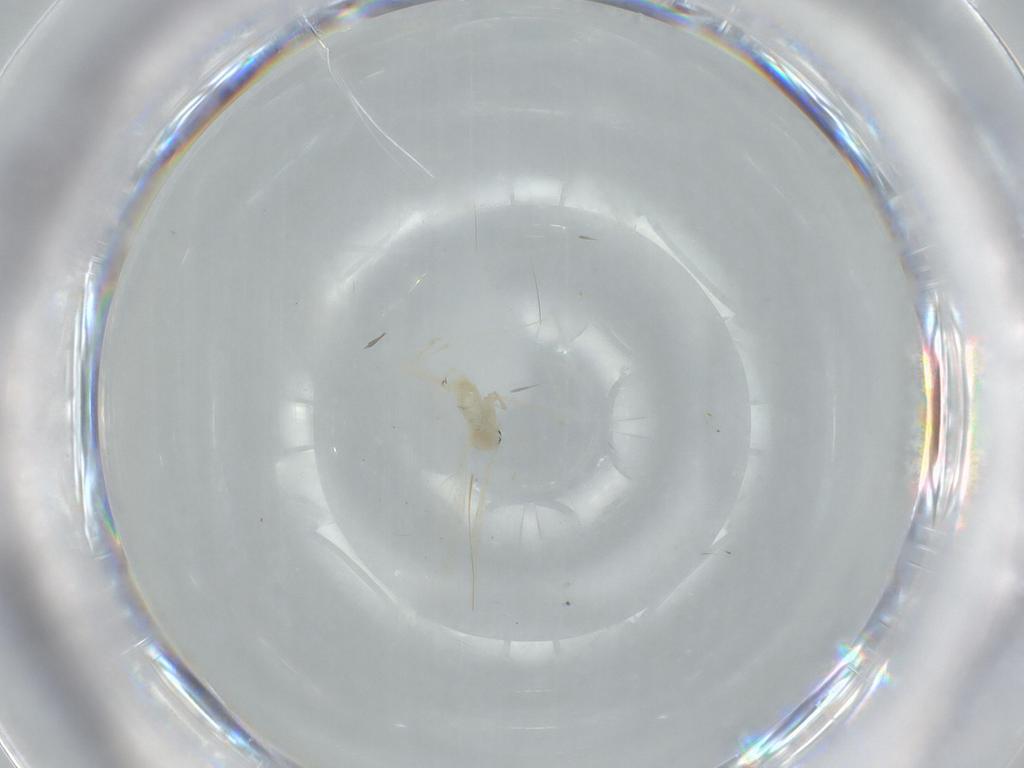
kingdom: Animalia
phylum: Arthropoda
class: Insecta
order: Diptera
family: Cecidomyiidae
